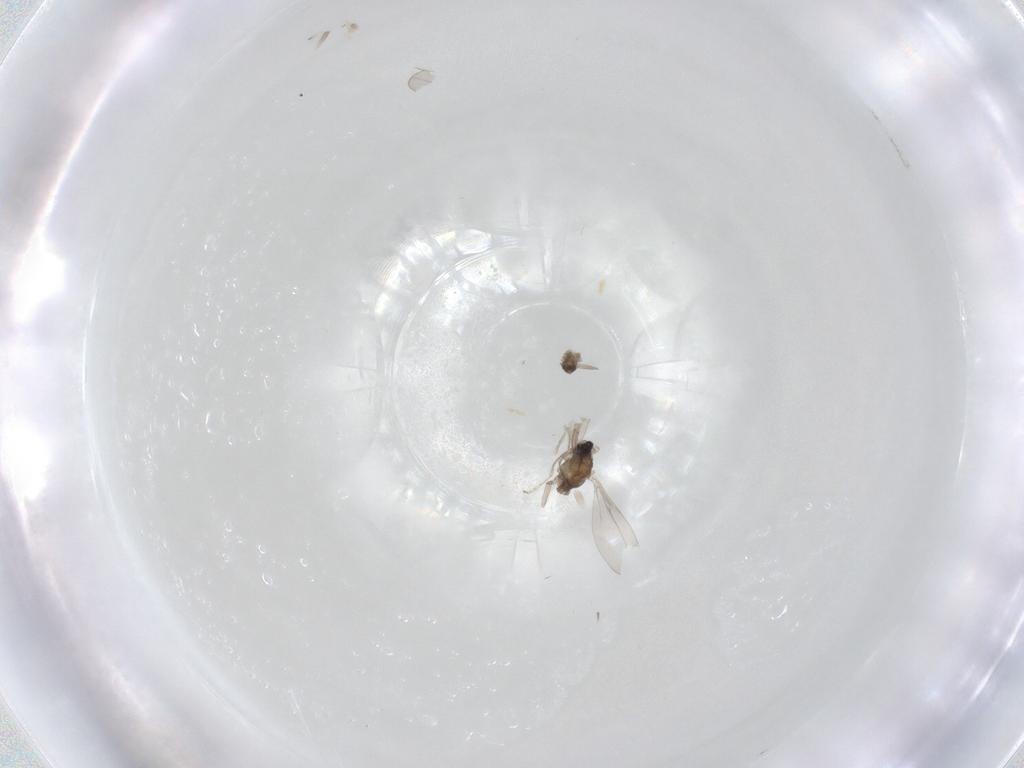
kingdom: Animalia
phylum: Arthropoda
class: Insecta
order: Diptera
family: Cecidomyiidae
